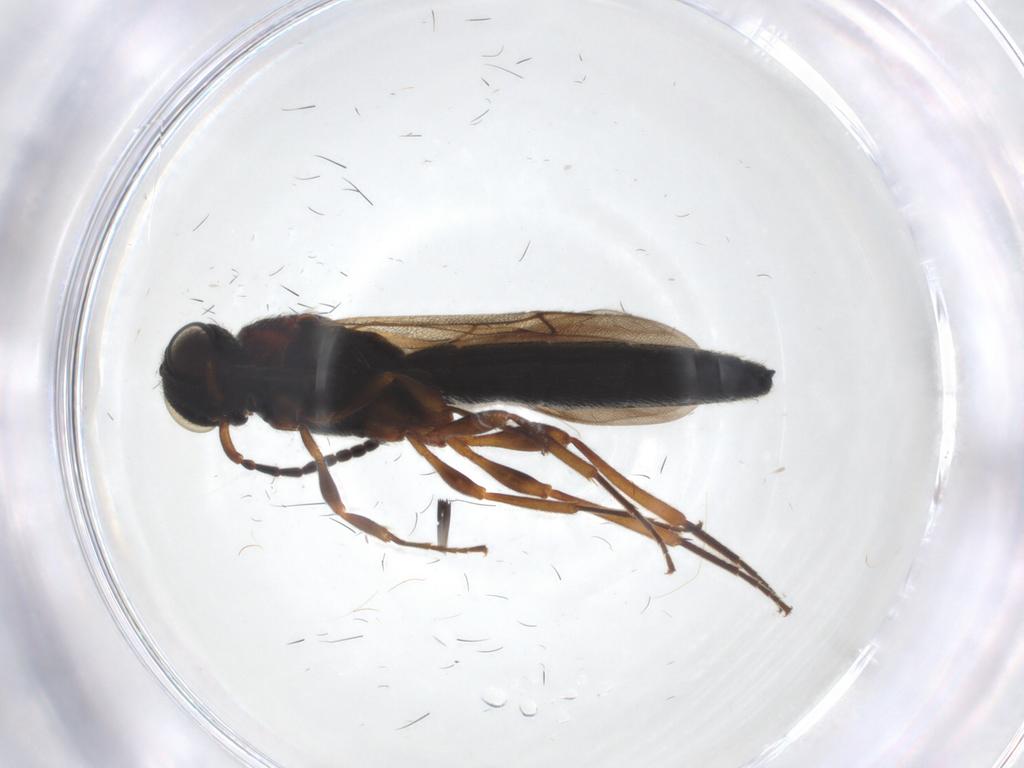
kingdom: Animalia
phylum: Arthropoda
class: Insecta
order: Hymenoptera
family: Scelionidae
